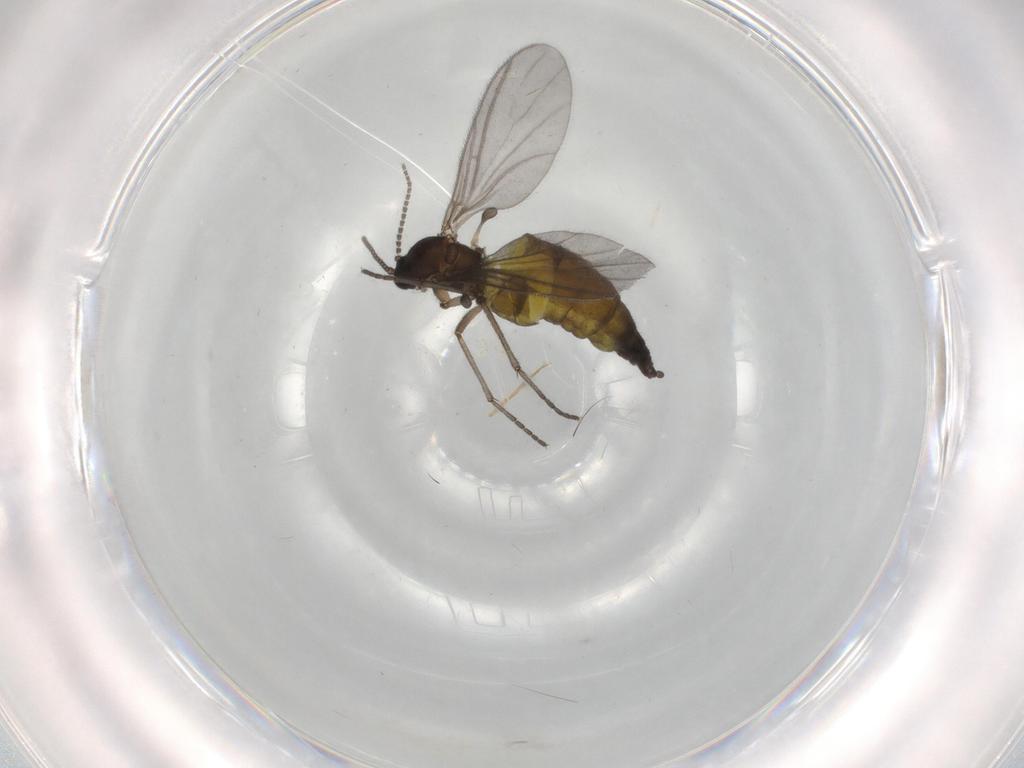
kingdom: Animalia
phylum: Arthropoda
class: Insecta
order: Diptera
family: Sciaridae
